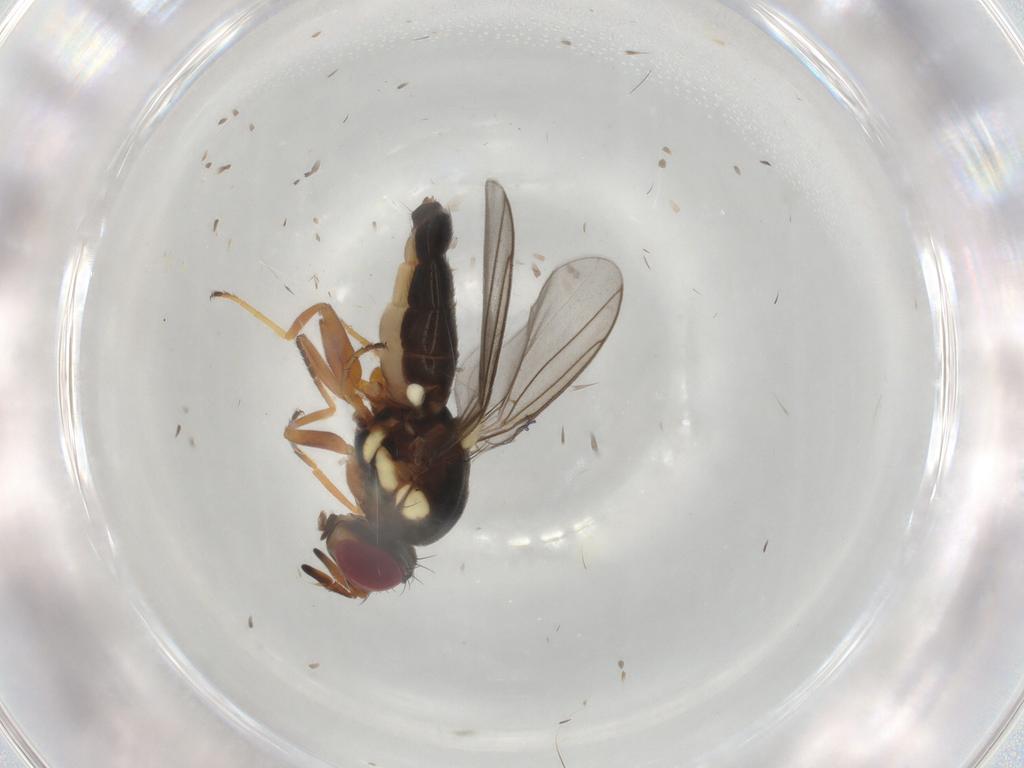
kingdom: Animalia
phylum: Arthropoda
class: Insecta
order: Diptera
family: Chloropidae
